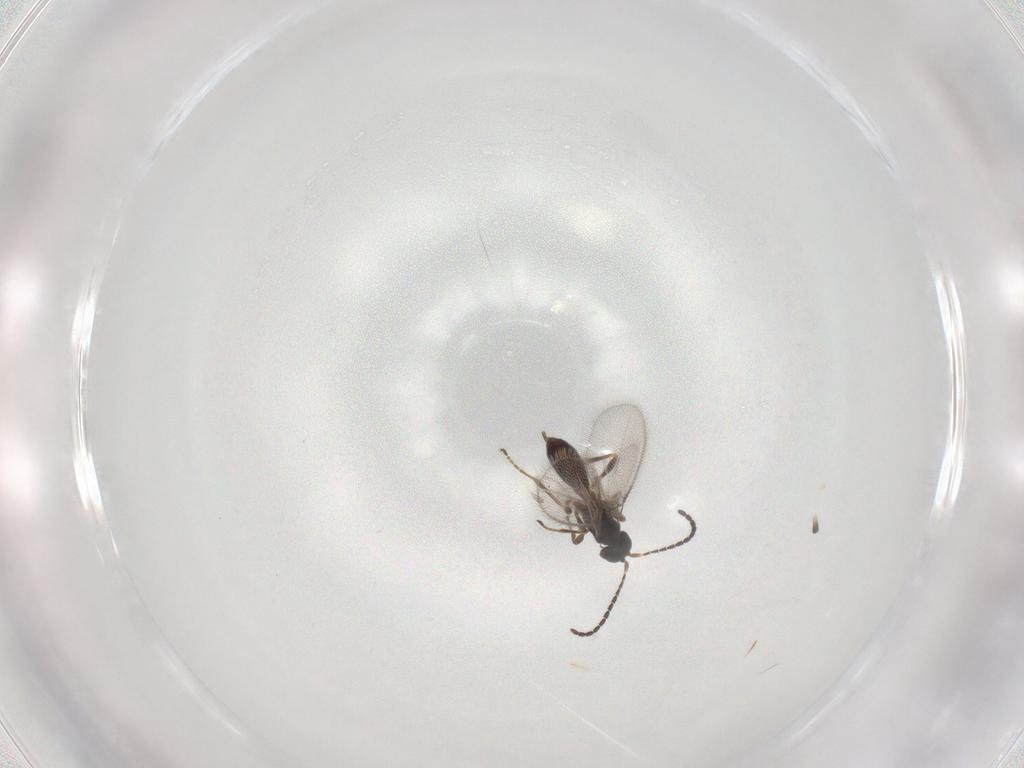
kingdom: Animalia
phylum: Arthropoda
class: Insecta
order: Hymenoptera
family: Braconidae
